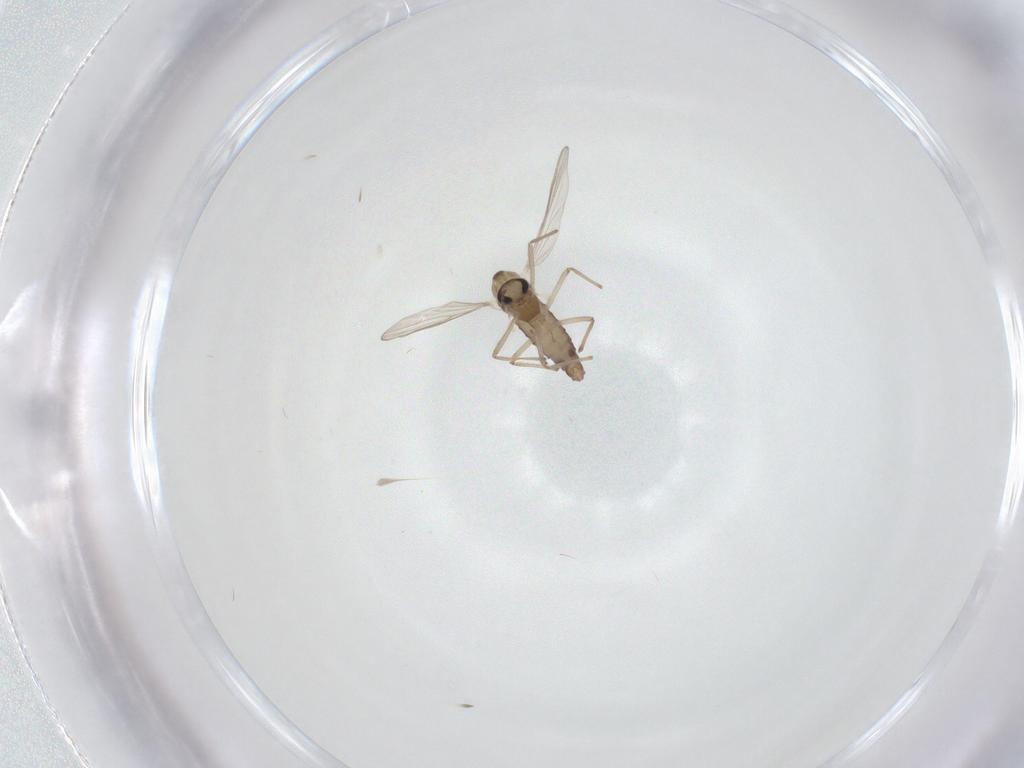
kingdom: Animalia
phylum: Arthropoda
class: Insecta
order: Diptera
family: Chironomidae
